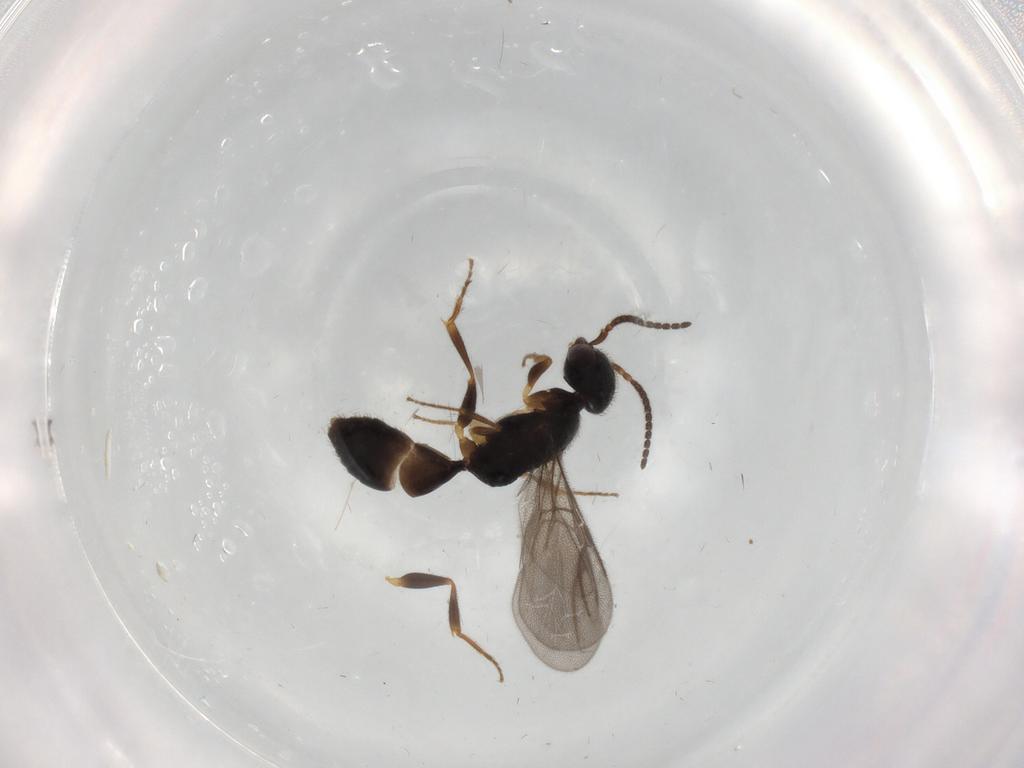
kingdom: Animalia
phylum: Arthropoda
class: Insecta
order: Hymenoptera
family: Bethylidae
